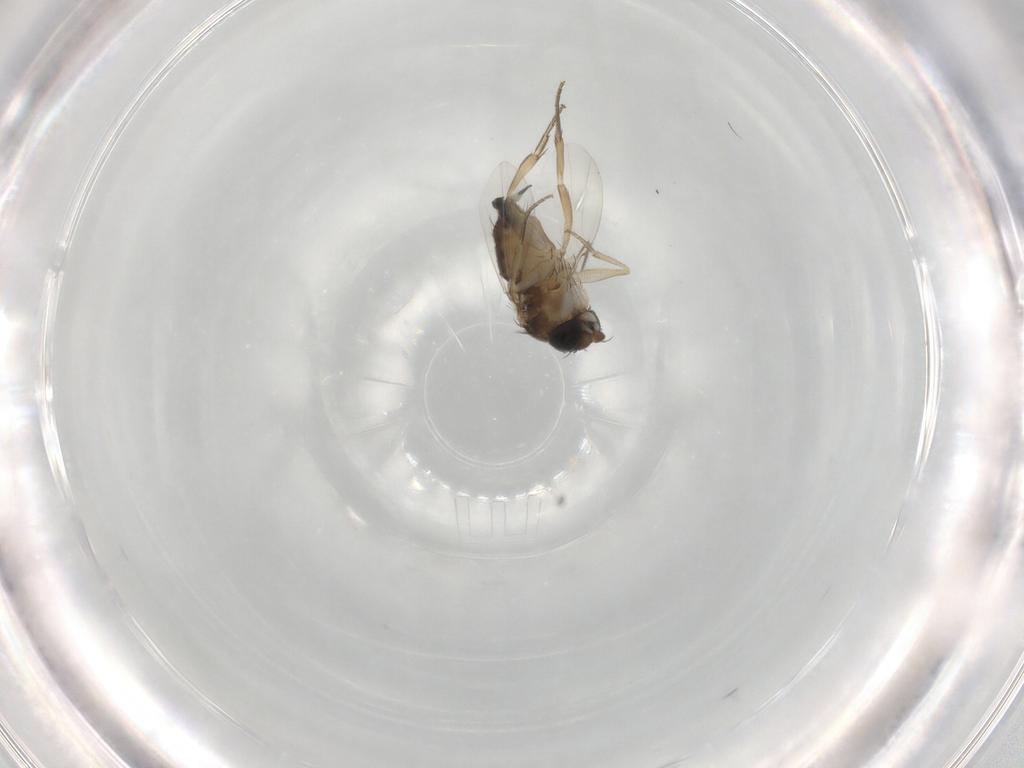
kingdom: Animalia
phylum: Arthropoda
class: Insecta
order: Diptera
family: Phoridae
